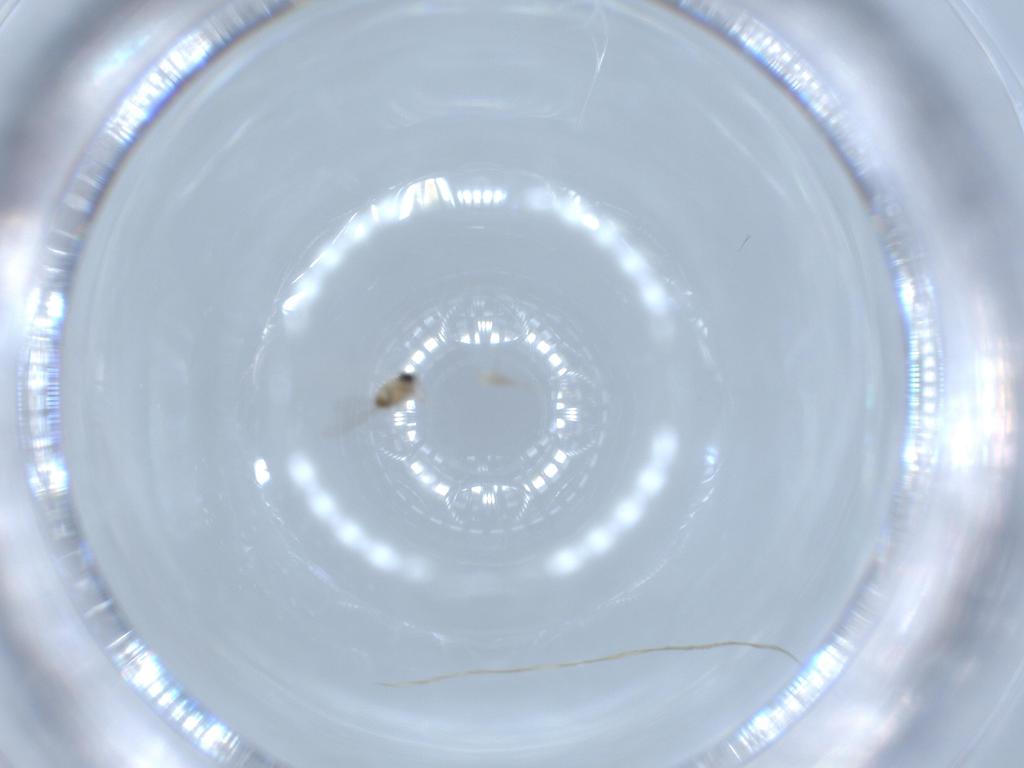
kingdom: Animalia
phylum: Arthropoda
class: Insecta
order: Diptera
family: Cecidomyiidae
